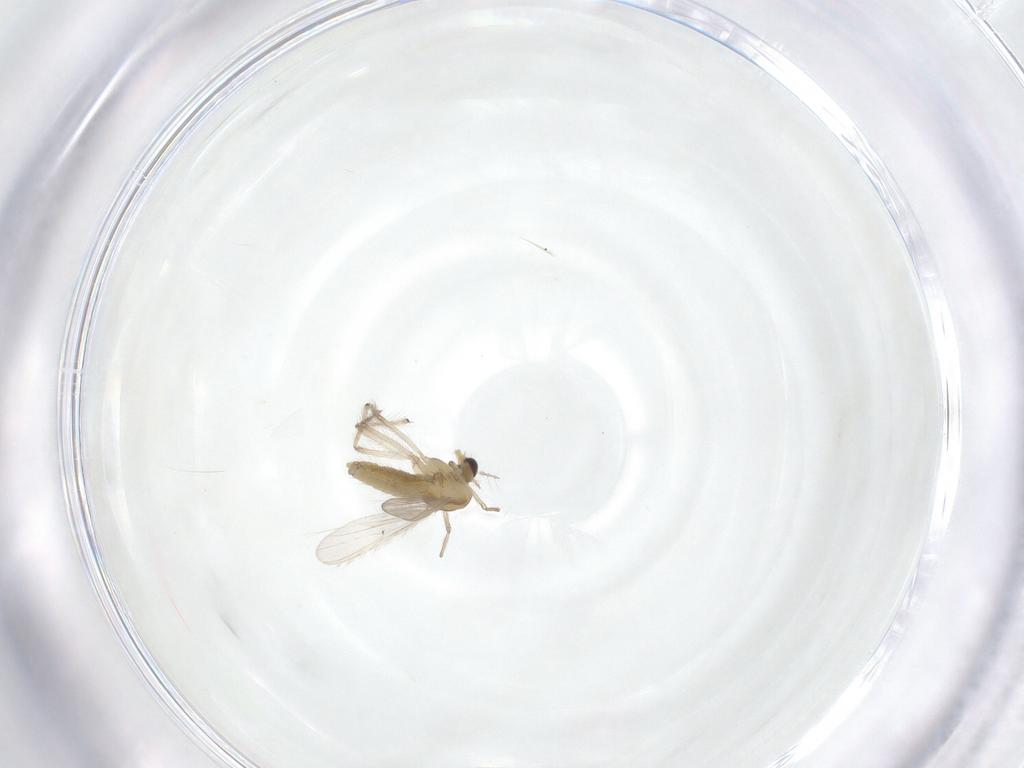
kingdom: Animalia
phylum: Arthropoda
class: Insecta
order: Diptera
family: Chironomidae
